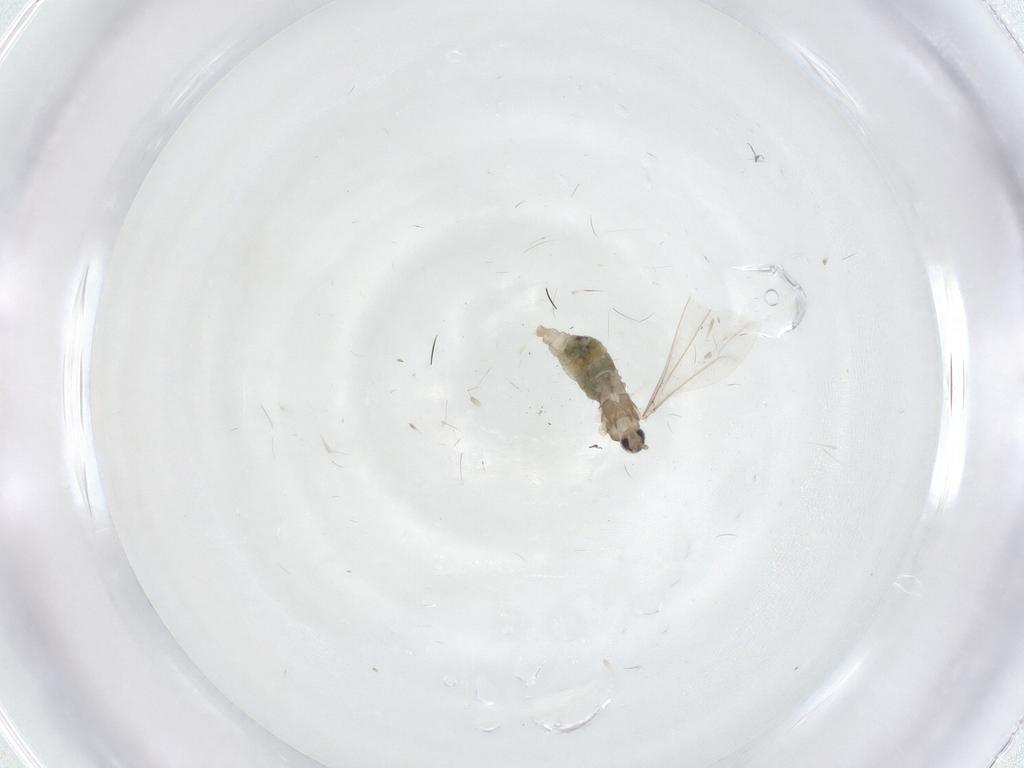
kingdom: Animalia
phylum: Arthropoda
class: Insecta
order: Diptera
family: Cecidomyiidae
